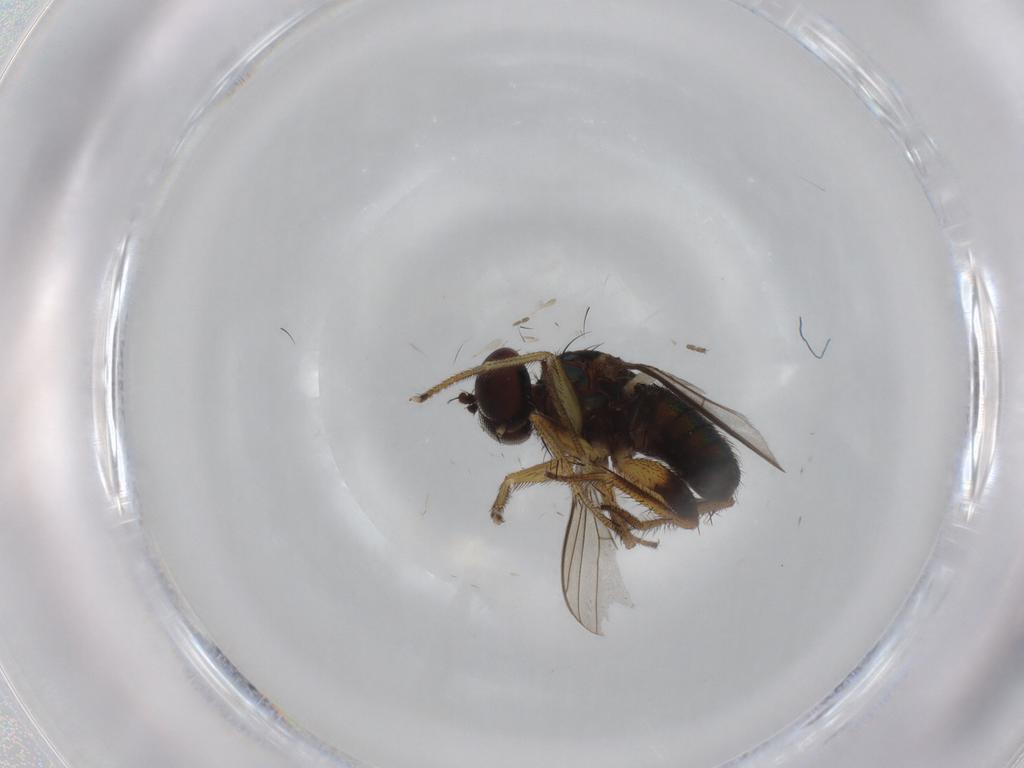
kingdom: Animalia
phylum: Arthropoda
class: Insecta
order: Diptera
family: Dolichopodidae
